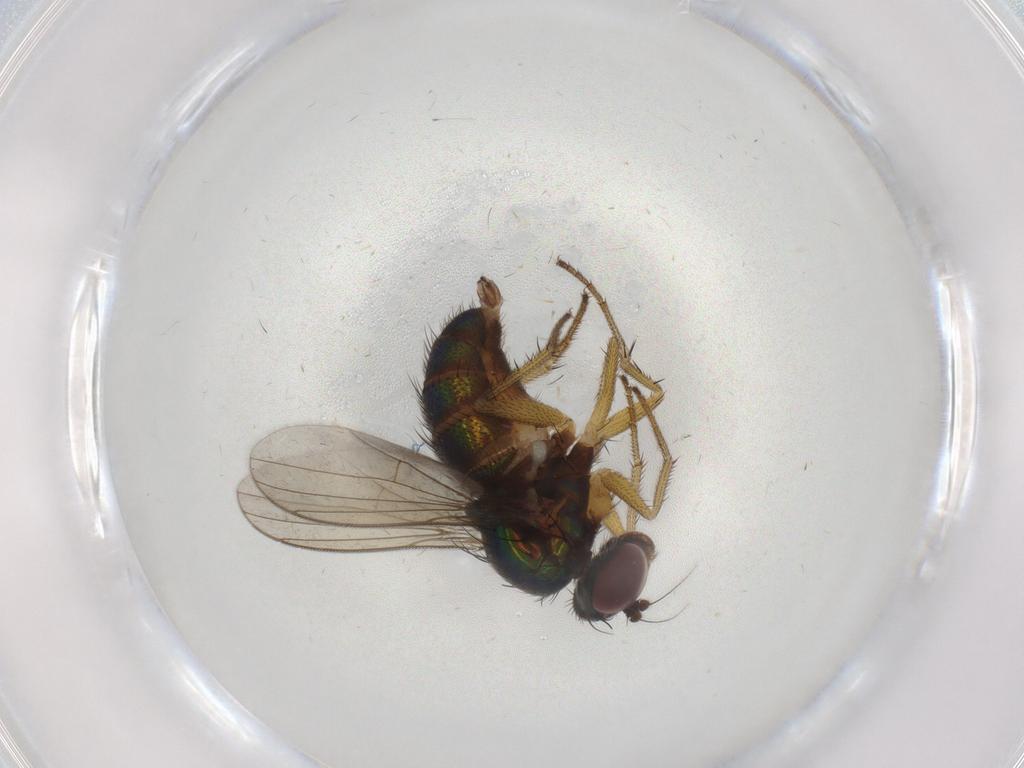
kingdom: Animalia
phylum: Arthropoda
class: Insecta
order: Diptera
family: Dolichopodidae
